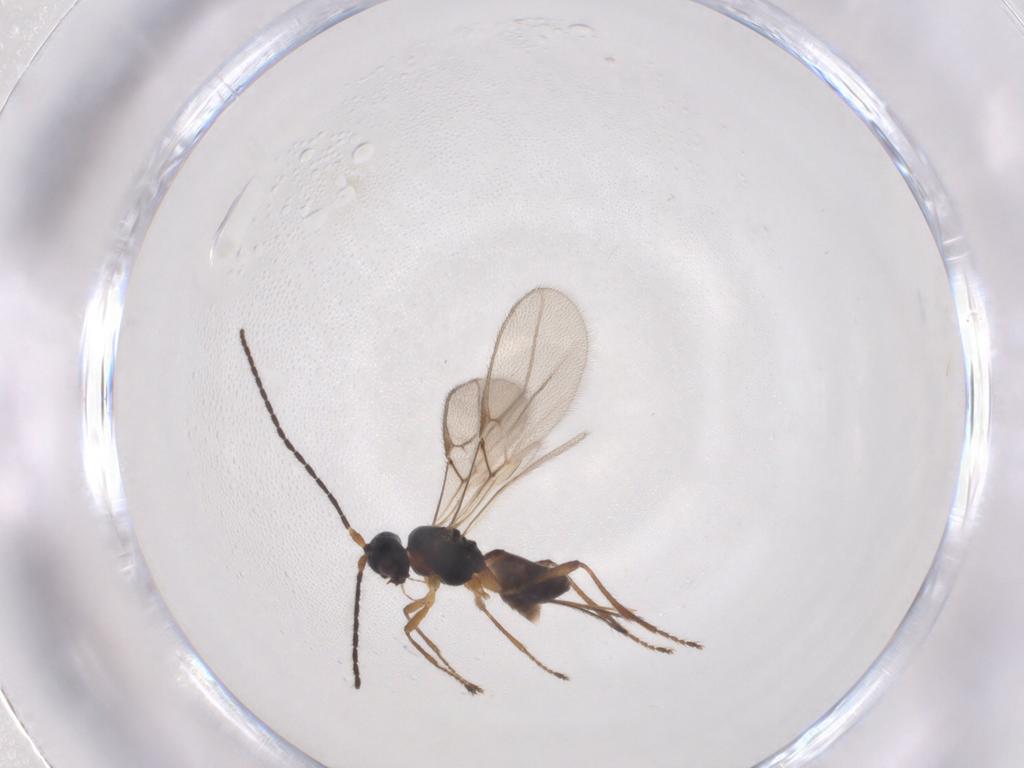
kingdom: Animalia
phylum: Arthropoda
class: Insecta
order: Hymenoptera
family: Braconidae
